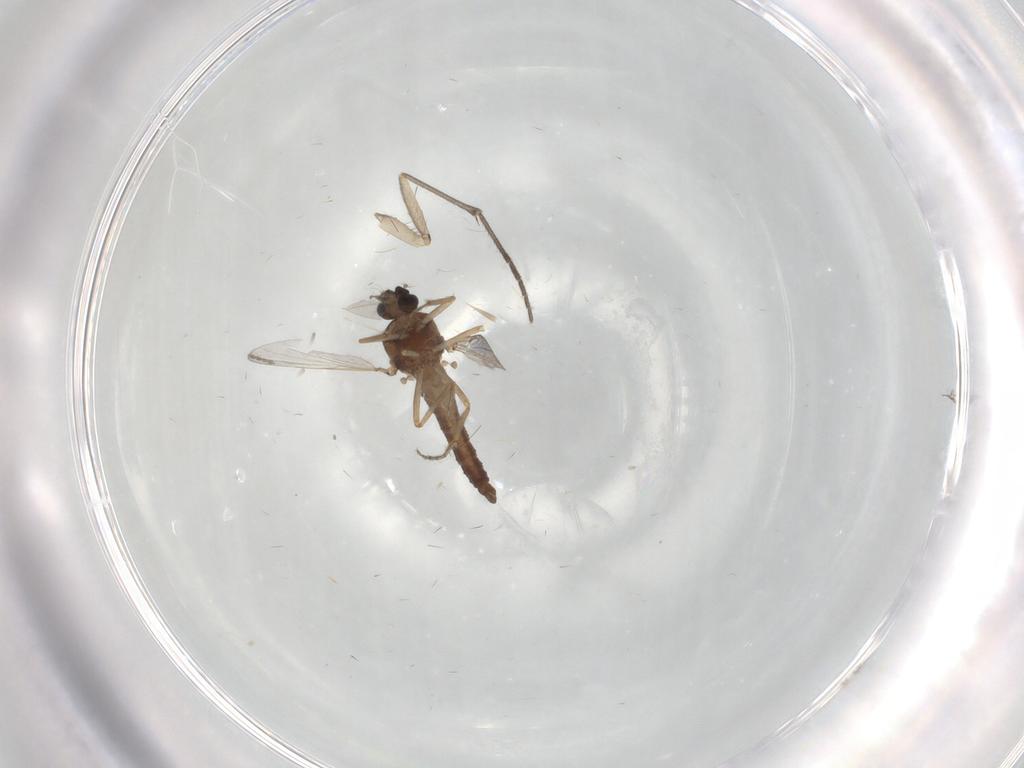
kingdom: Animalia
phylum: Arthropoda
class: Insecta
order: Diptera
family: Ceratopogonidae
